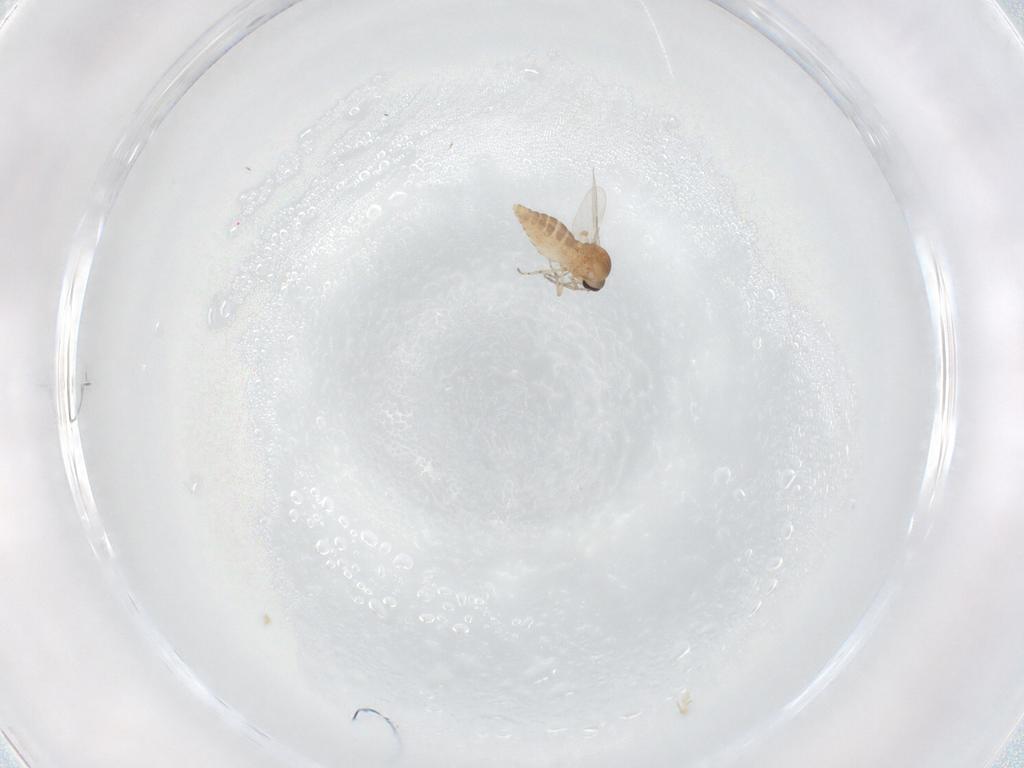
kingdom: Animalia
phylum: Arthropoda
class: Insecta
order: Diptera
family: Ceratopogonidae
